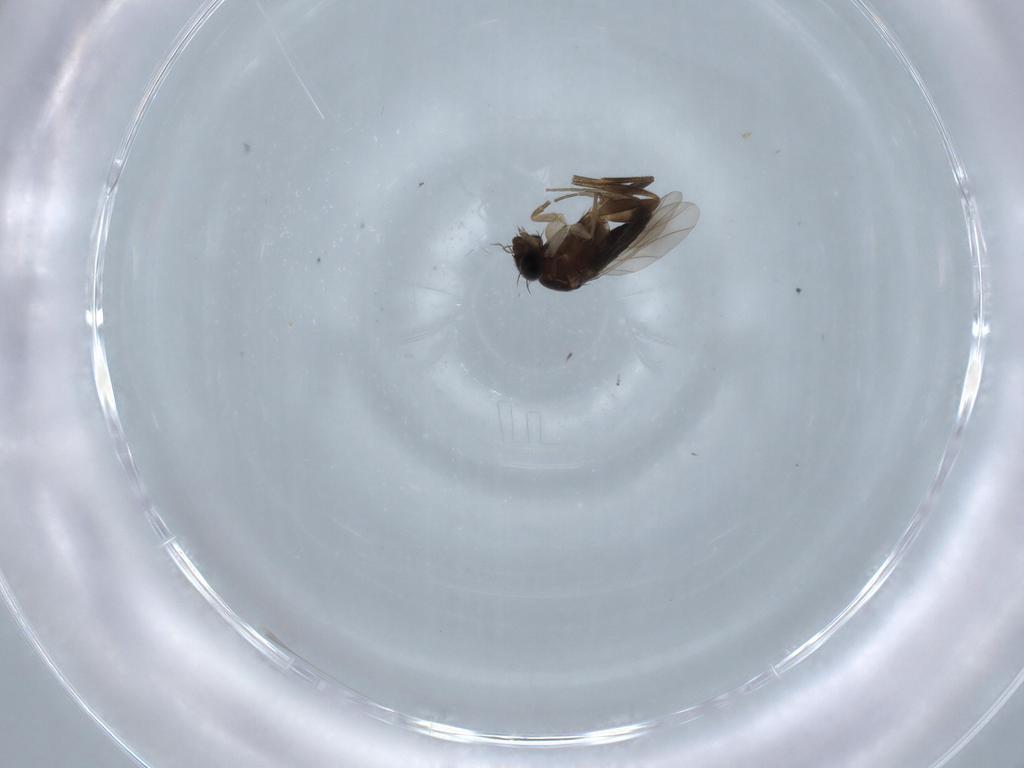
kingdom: Animalia
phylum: Arthropoda
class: Insecta
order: Diptera
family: Phoridae
